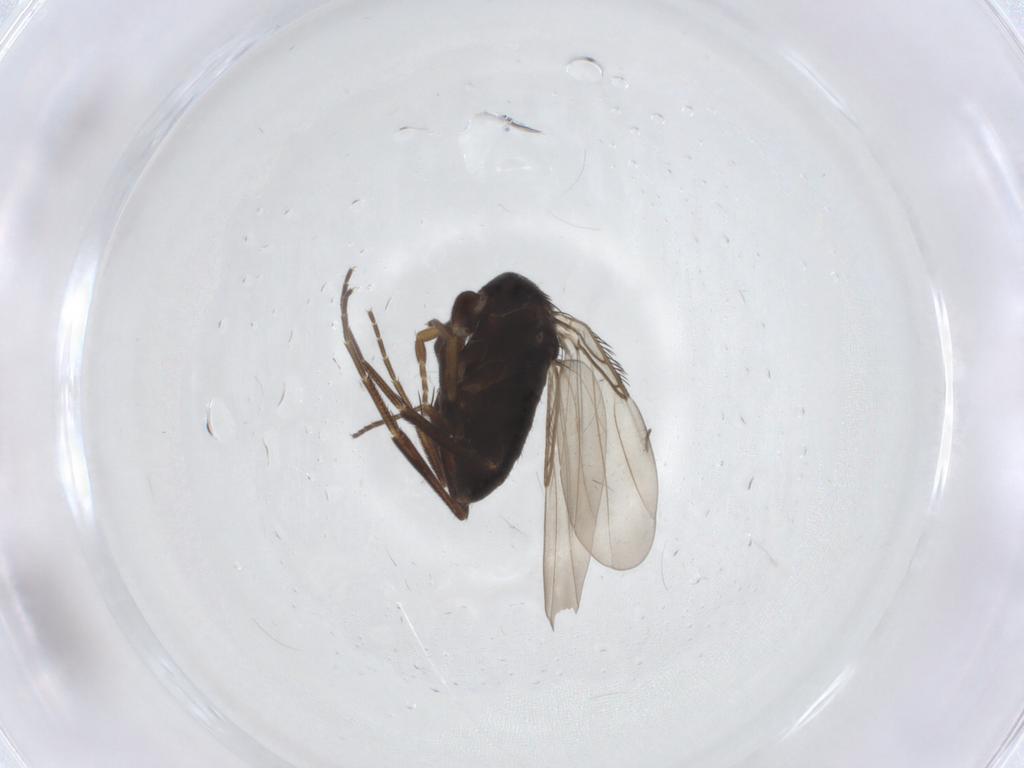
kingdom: Animalia
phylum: Arthropoda
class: Insecta
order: Diptera
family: Phoridae
